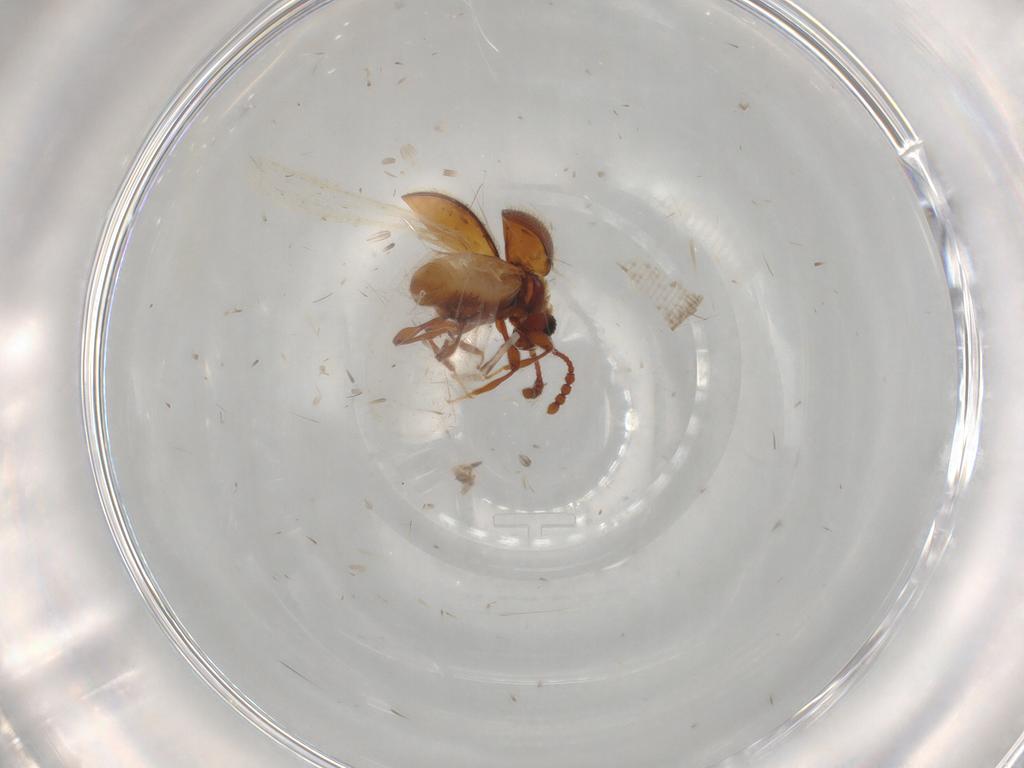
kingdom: Animalia
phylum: Arthropoda
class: Insecta
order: Coleoptera
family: Staphylinidae
